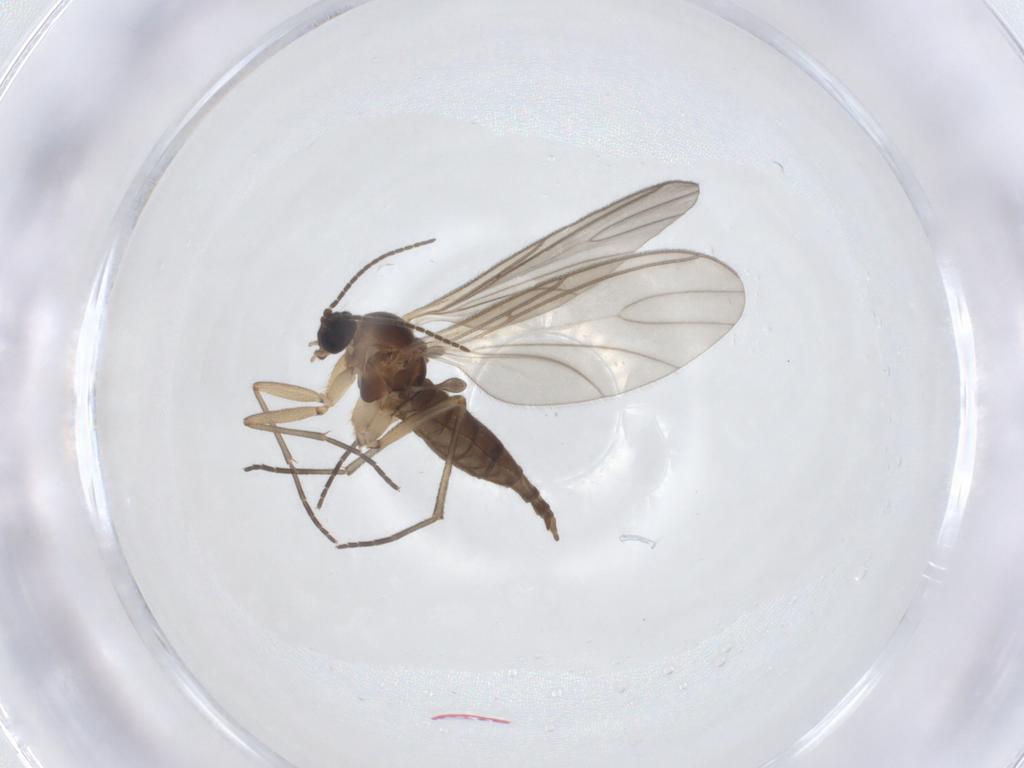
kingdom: Animalia
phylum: Arthropoda
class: Insecta
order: Diptera
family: Sciaridae
